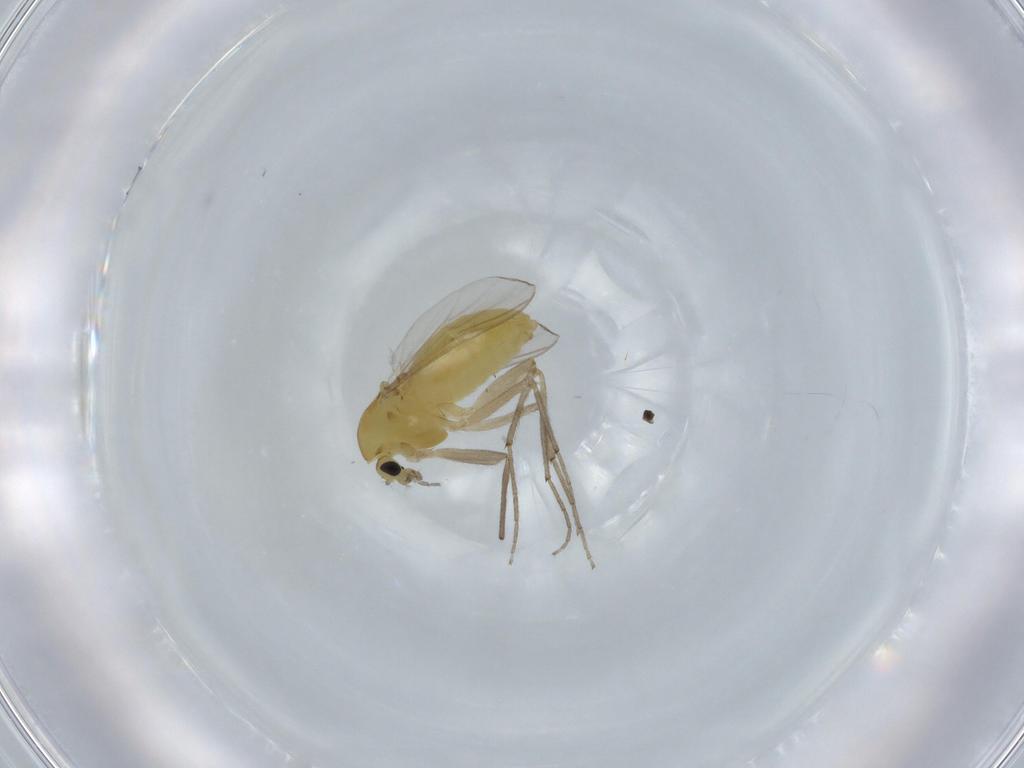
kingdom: Animalia
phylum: Arthropoda
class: Insecta
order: Diptera
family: Chironomidae
